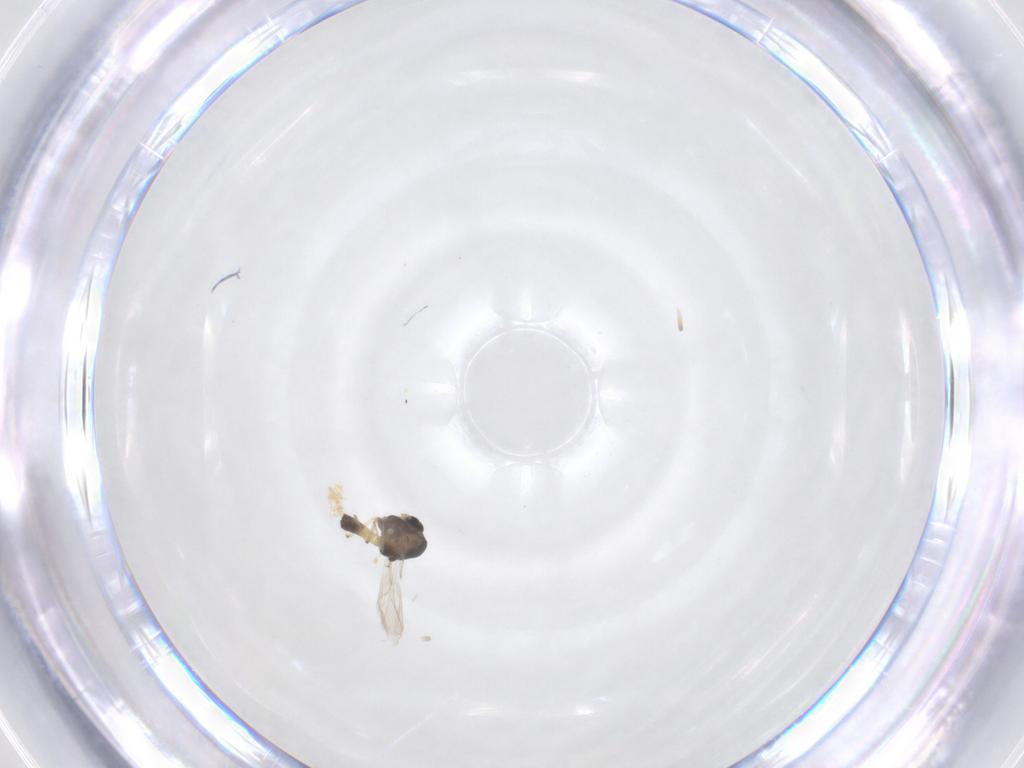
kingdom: Animalia
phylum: Arthropoda
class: Insecta
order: Diptera
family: Chironomidae
